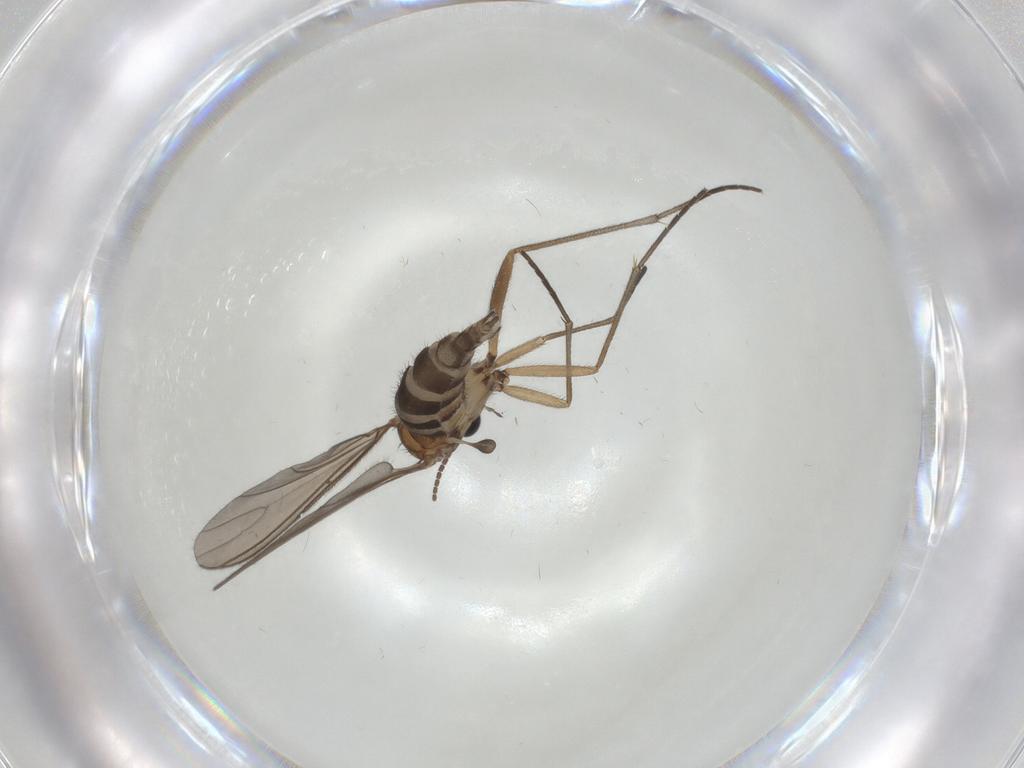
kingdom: Animalia
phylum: Arthropoda
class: Insecta
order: Diptera
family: Sciaridae
